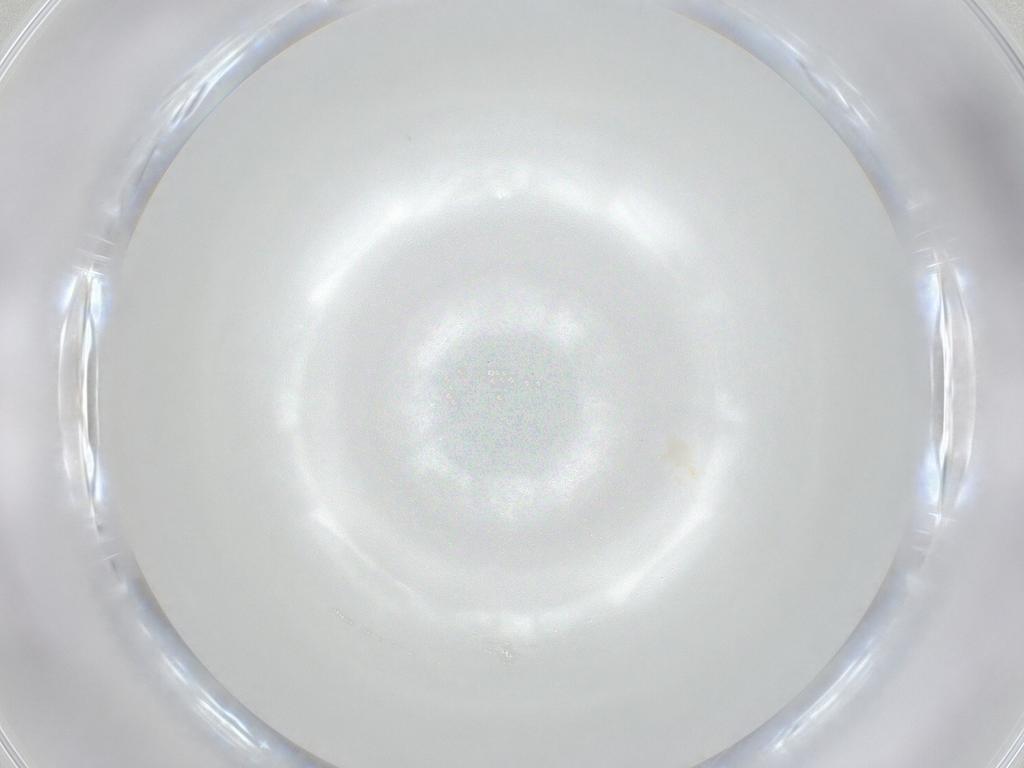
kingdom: Animalia
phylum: Arthropoda
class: Arachnida
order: Trombidiformes
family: Erythraeidae
